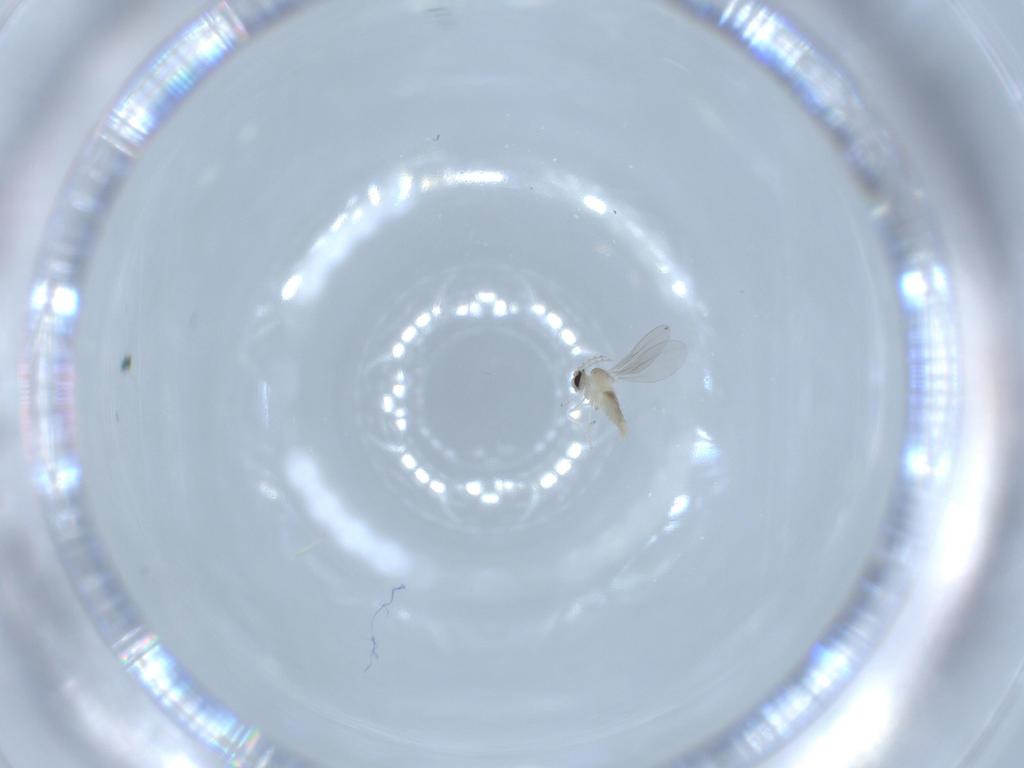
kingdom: Animalia
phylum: Arthropoda
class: Insecta
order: Diptera
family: Cecidomyiidae
